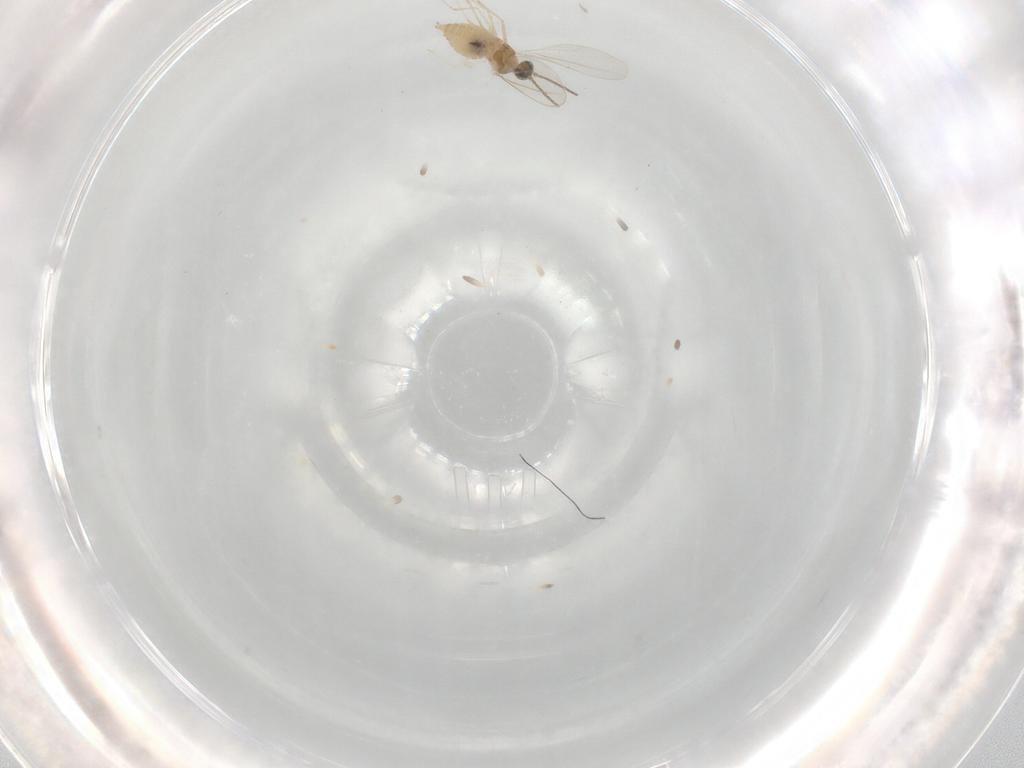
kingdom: Animalia
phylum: Arthropoda
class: Insecta
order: Diptera
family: Cecidomyiidae
